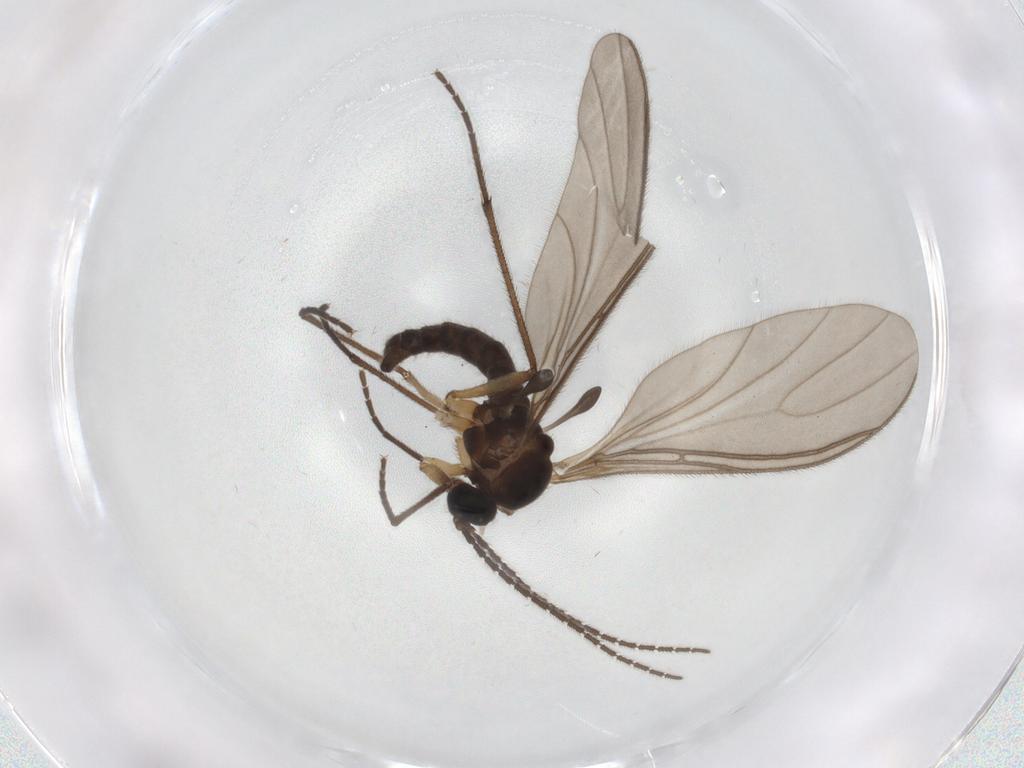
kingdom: Animalia
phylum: Arthropoda
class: Insecta
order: Diptera
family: Sciaridae
